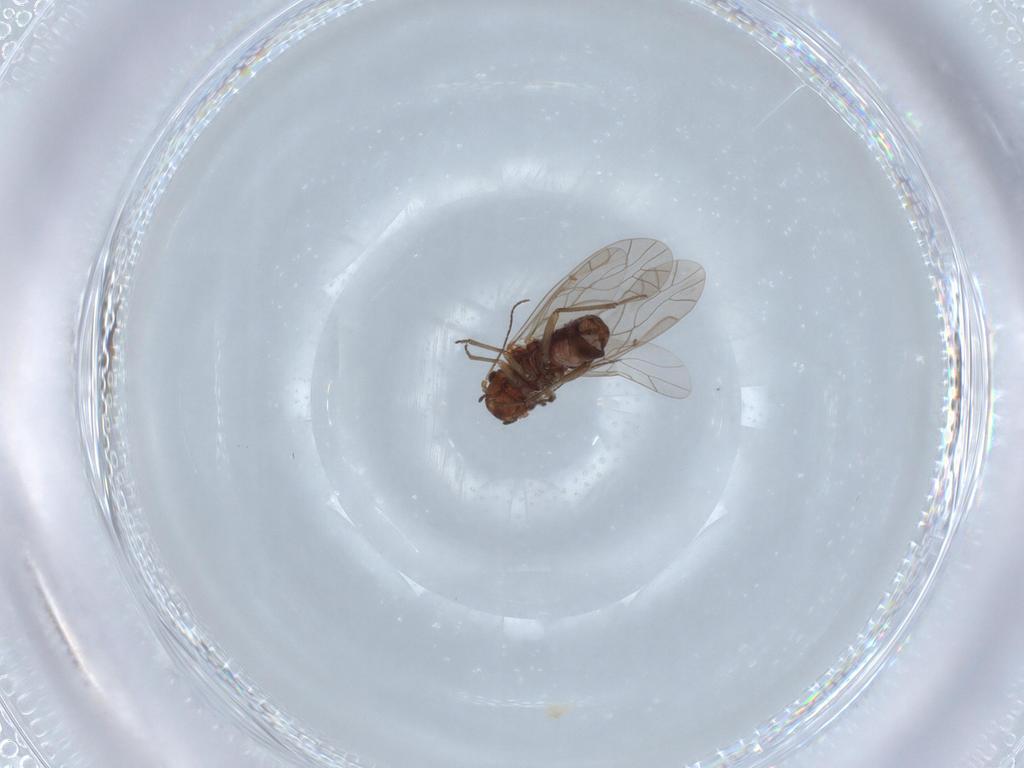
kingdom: Animalia
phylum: Arthropoda
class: Insecta
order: Psocodea
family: Lachesillidae
